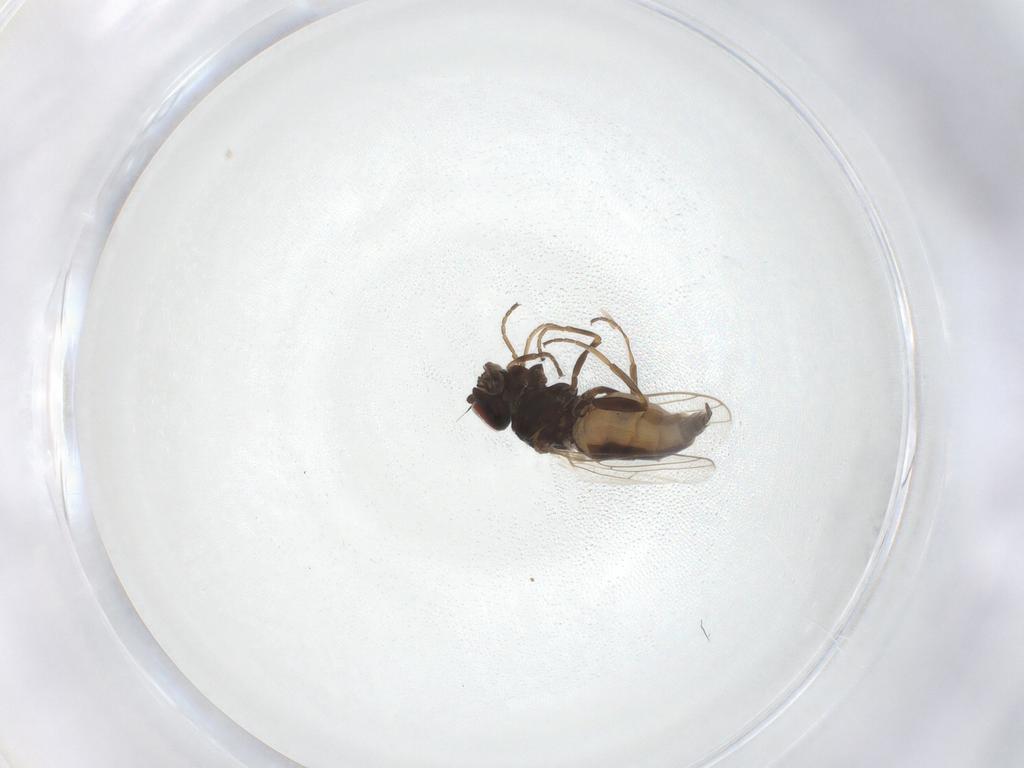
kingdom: Animalia
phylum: Arthropoda
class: Insecta
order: Diptera
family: Chloropidae
